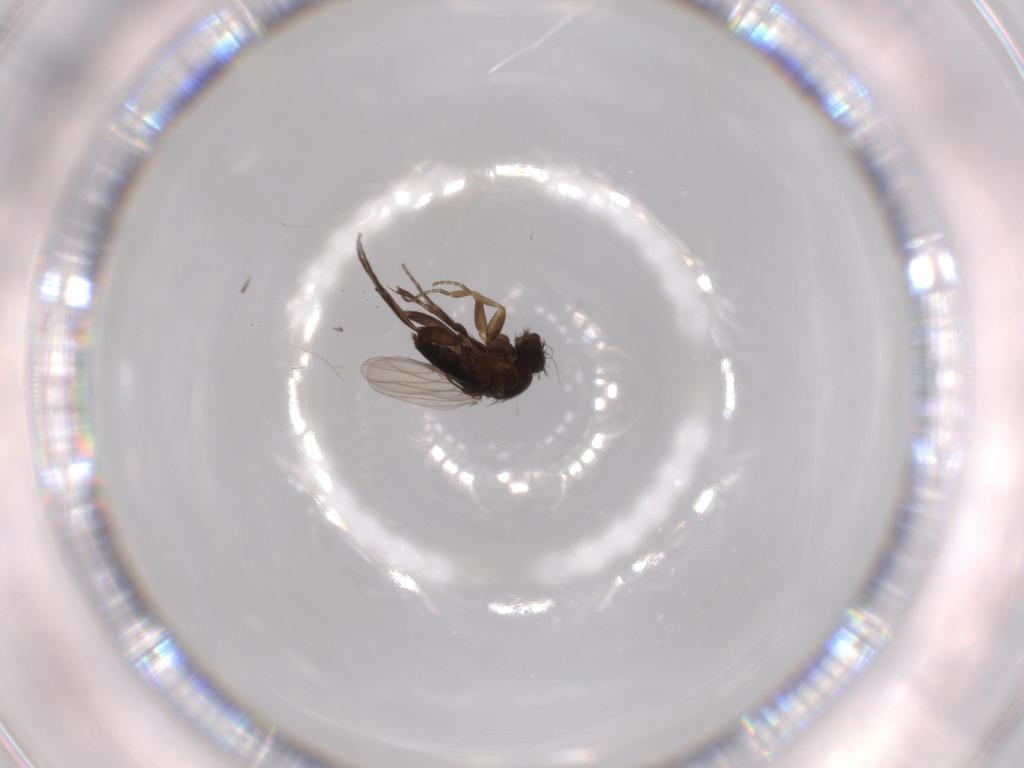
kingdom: Animalia
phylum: Arthropoda
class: Insecta
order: Diptera
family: Phoridae
